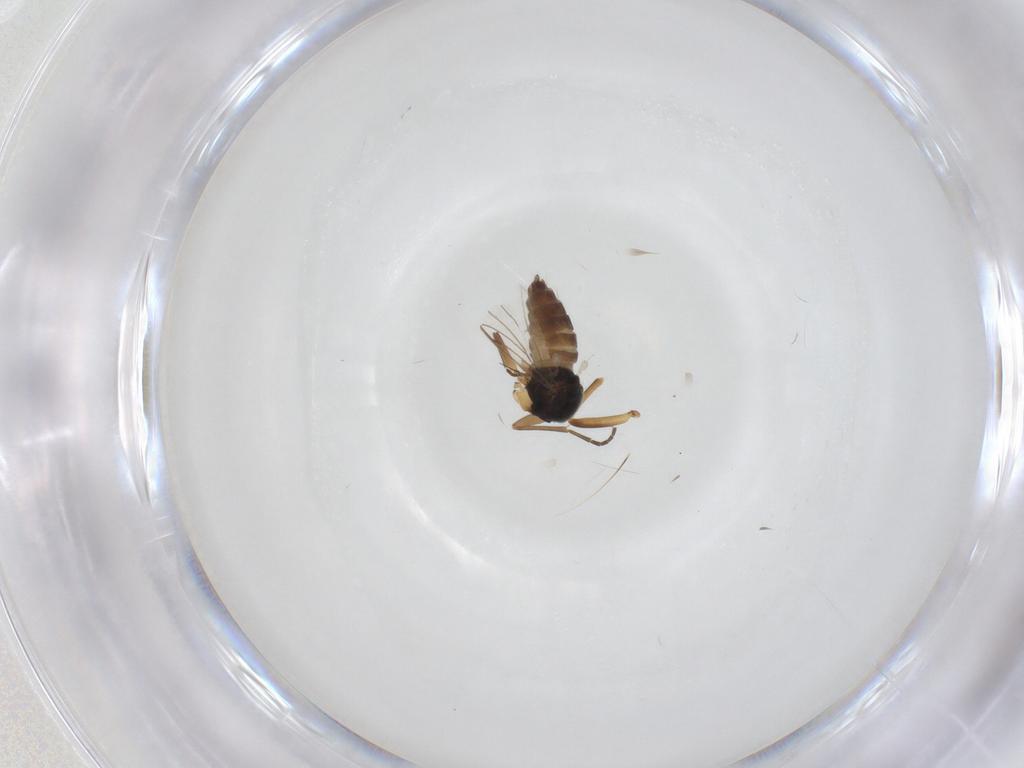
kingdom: Animalia
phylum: Arthropoda
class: Insecta
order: Diptera
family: Hybotidae
